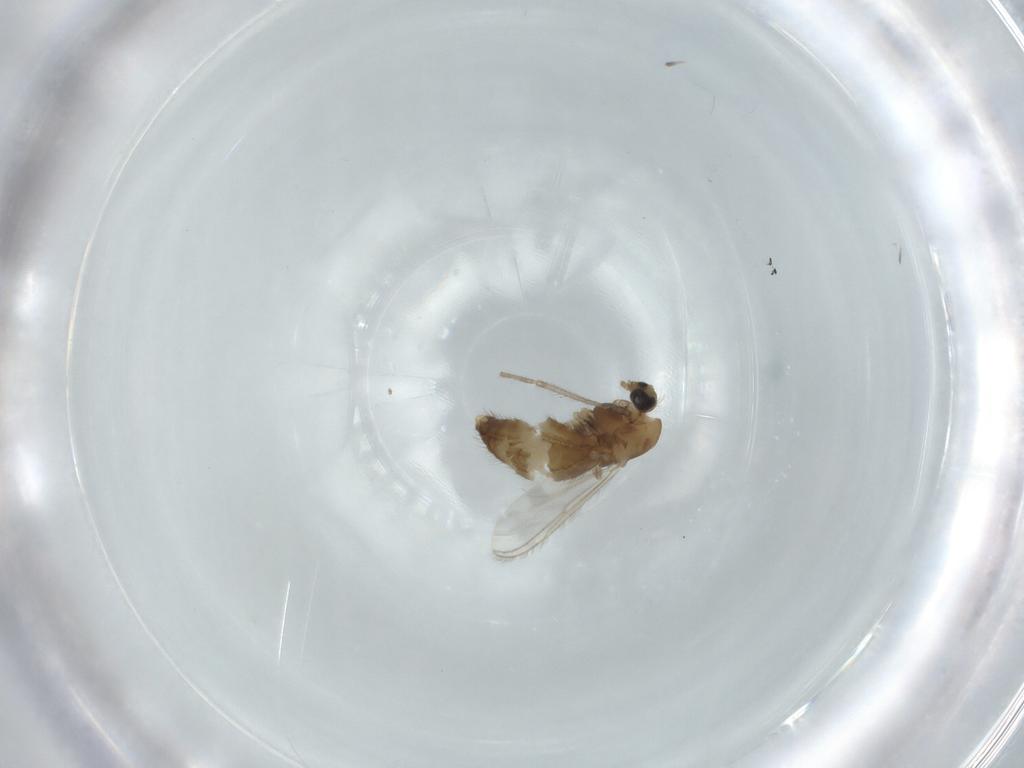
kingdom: Animalia
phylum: Arthropoda
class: Insecta
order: Diptera
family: Chironomidae
